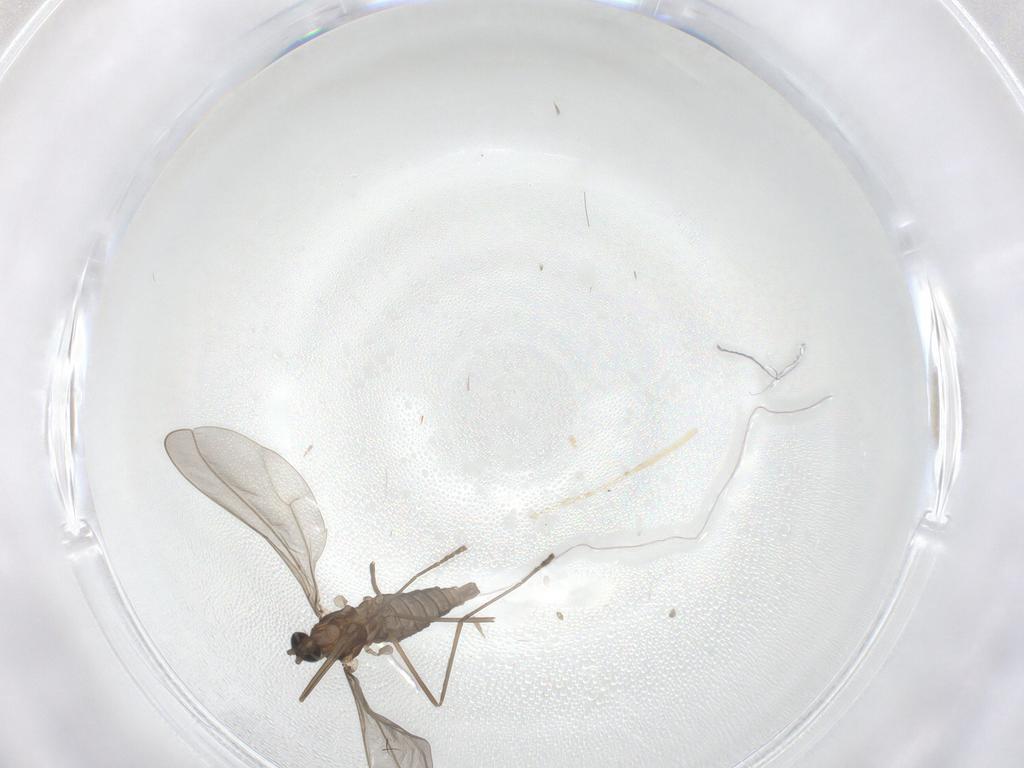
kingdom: Animalia
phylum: Arthropoda
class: Insecta
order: Diptera
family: Cecidomyiidae
